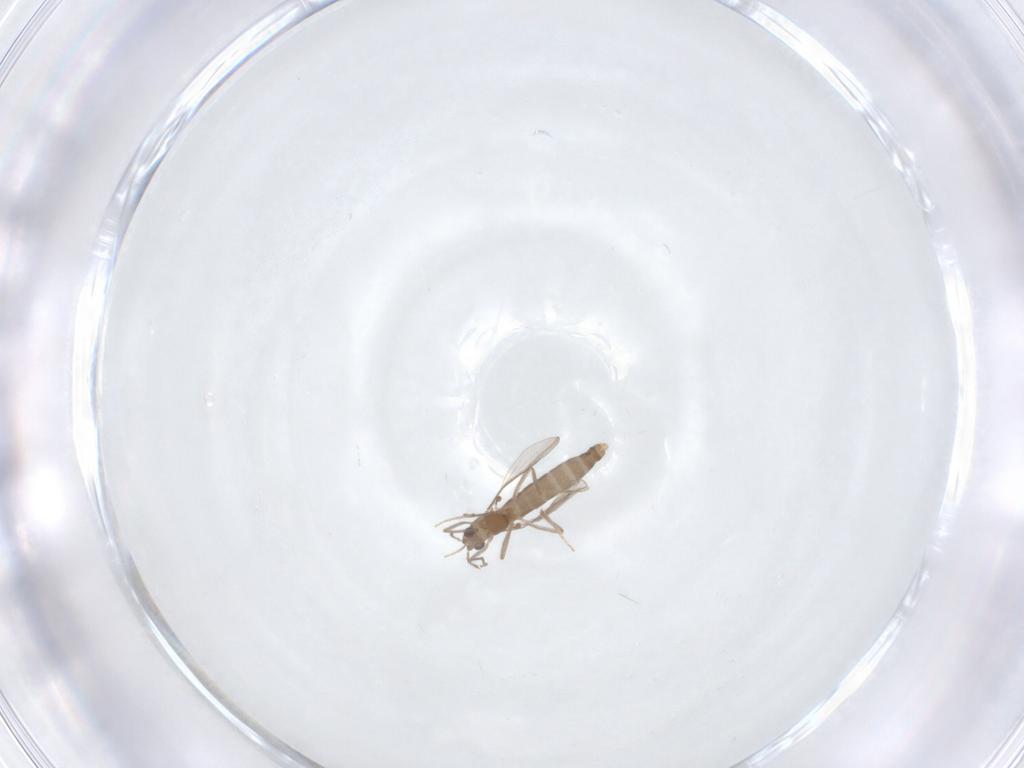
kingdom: Animalia
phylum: Arthropoda
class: Insecta
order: Diptera
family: Chironomidae
